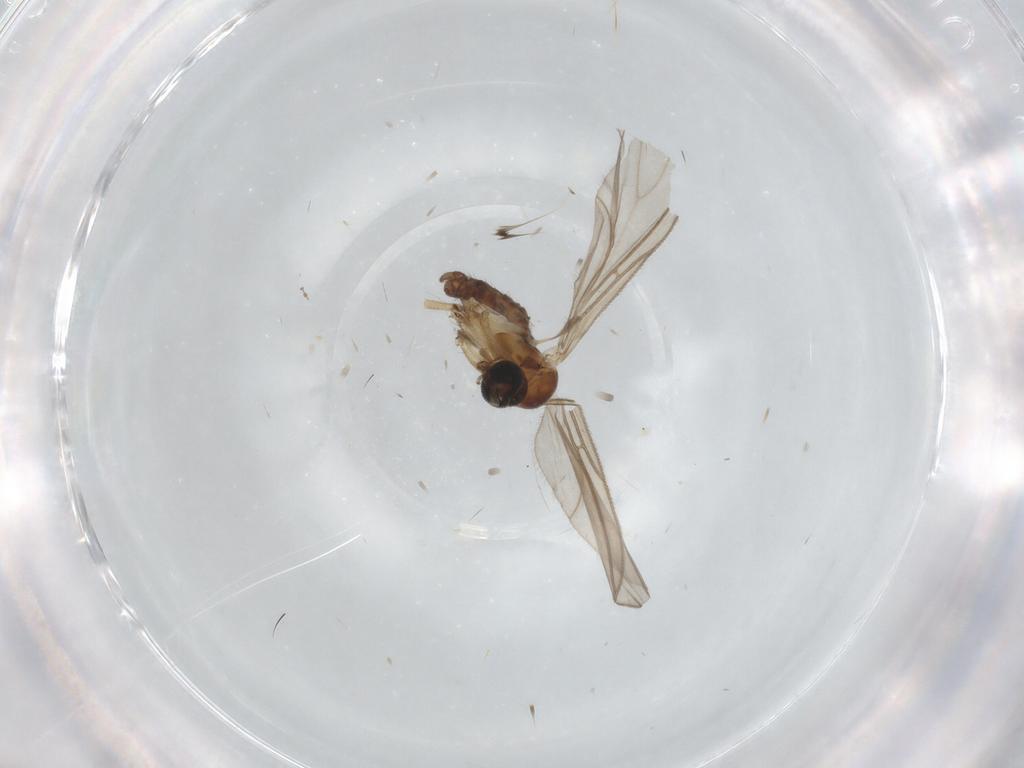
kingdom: Animalia
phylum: Arthropoda
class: Insecta
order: Diptera
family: Sciaridae
